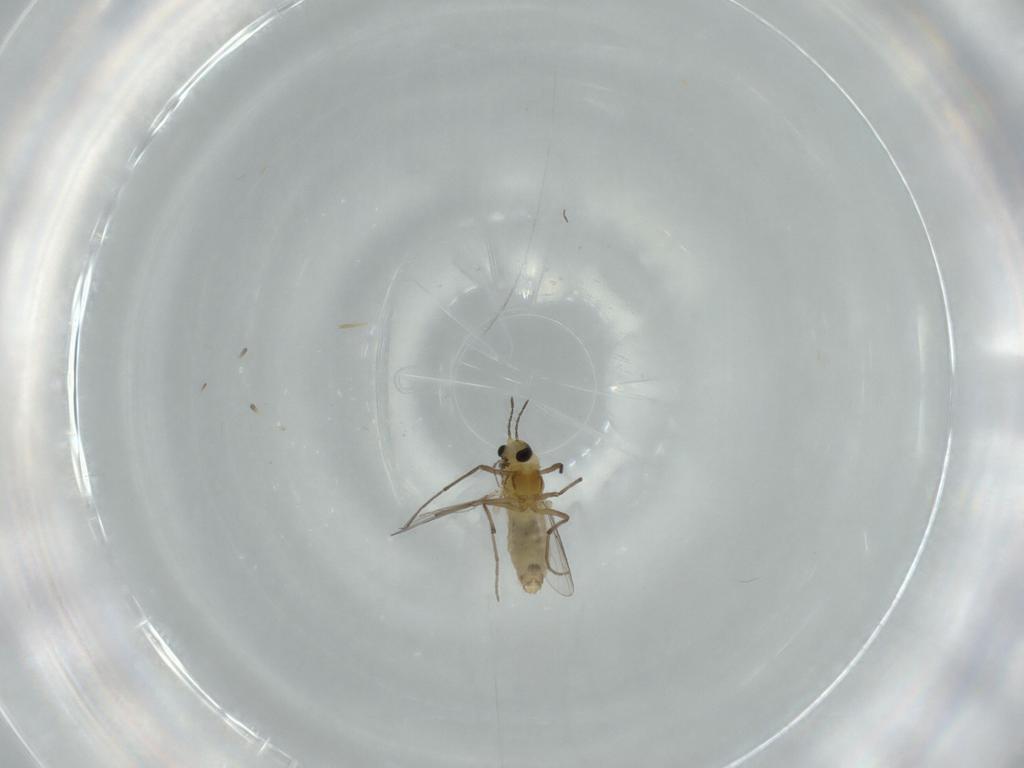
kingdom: Animalia
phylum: Arthropoda
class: Insecta
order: Diptera
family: Chironomidae
